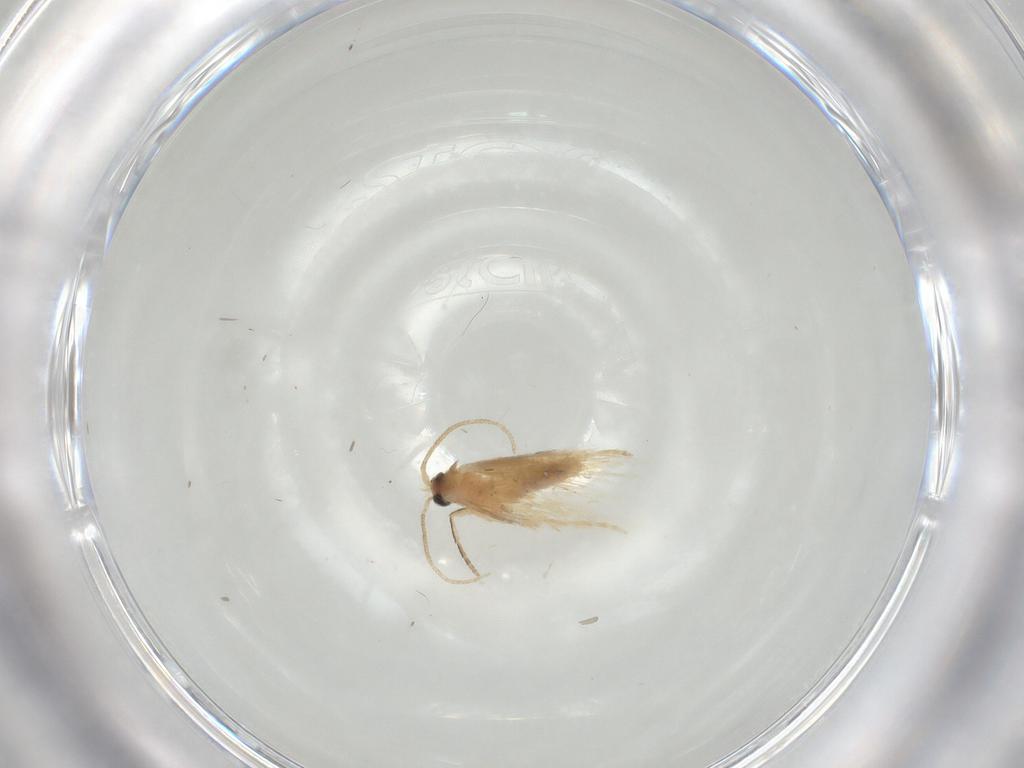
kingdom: Animalia
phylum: Arthropoda
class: Insecta
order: Lepidoptera
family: Nepticulidae
